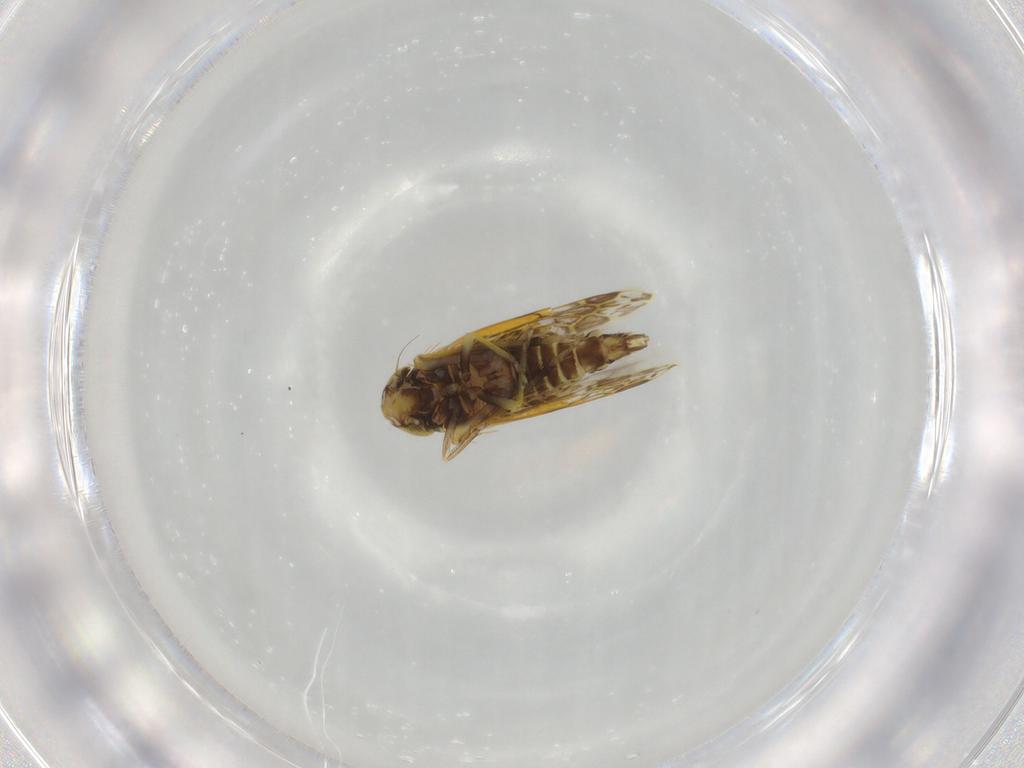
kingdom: Animalia
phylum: Arthropoda
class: Insecta
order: Hemiptera
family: Cicadellidae
